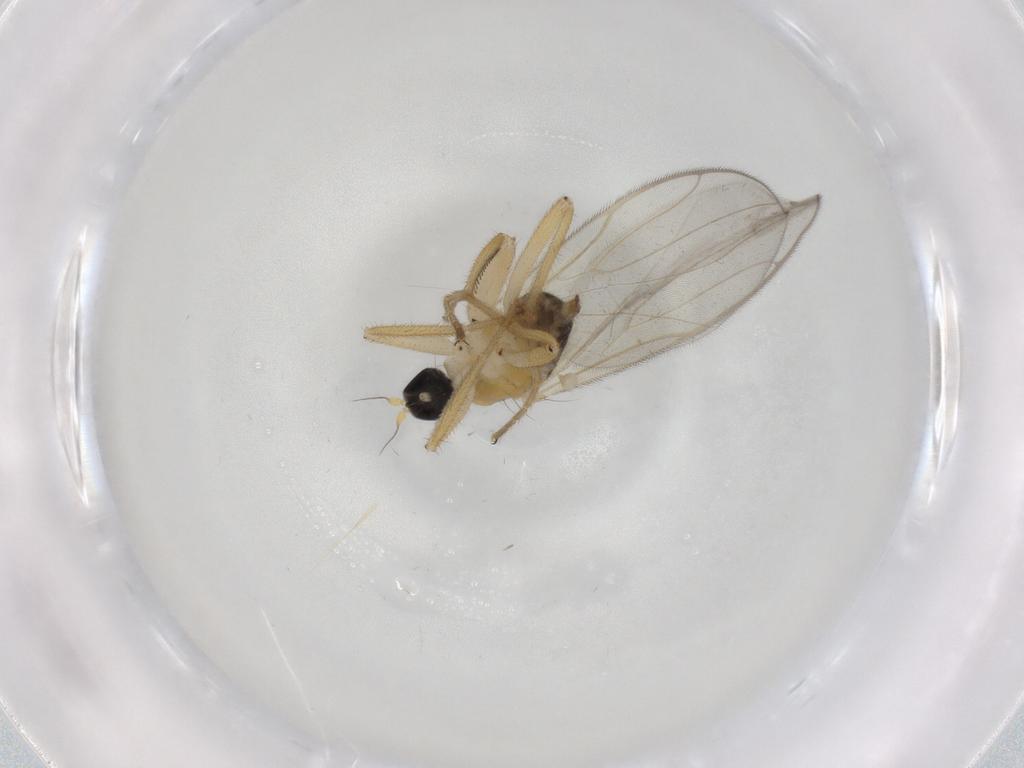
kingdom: Animalia
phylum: Arthropoda
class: Insecta
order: Diptera
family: Hybotidae
